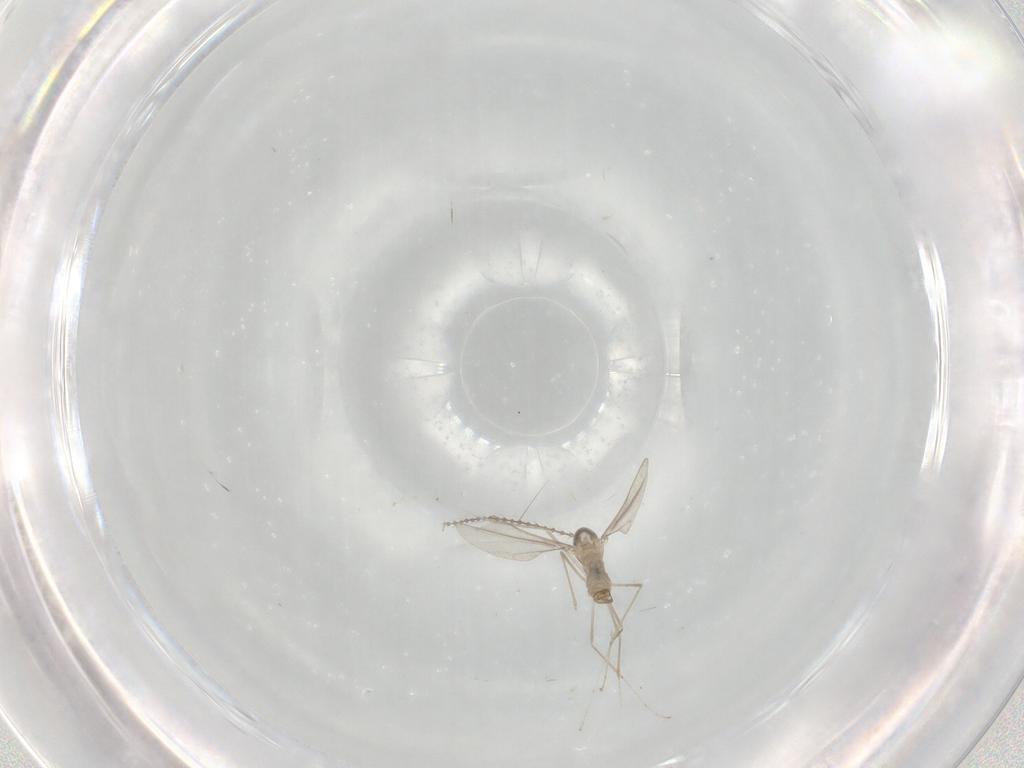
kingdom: Animalia
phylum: Arthropoda
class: Insecta
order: Diptera
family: Cecidomyiidae
